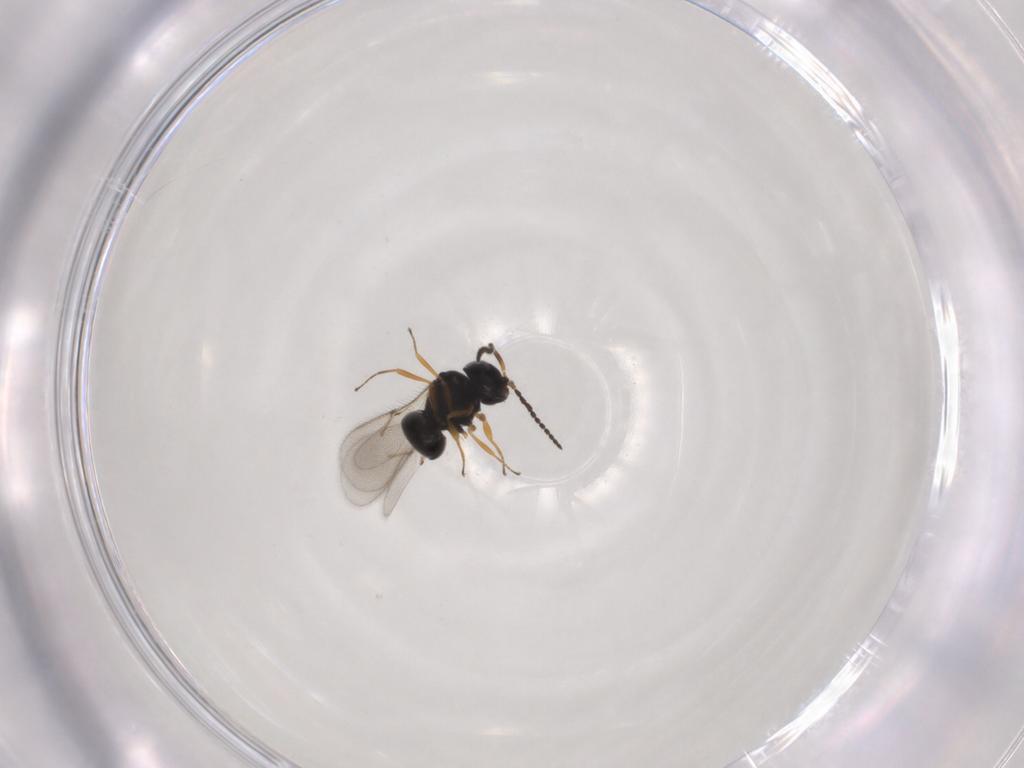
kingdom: Animalia
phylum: Arthropoda
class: Insecta
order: Hymenoptera
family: Scelionidae
